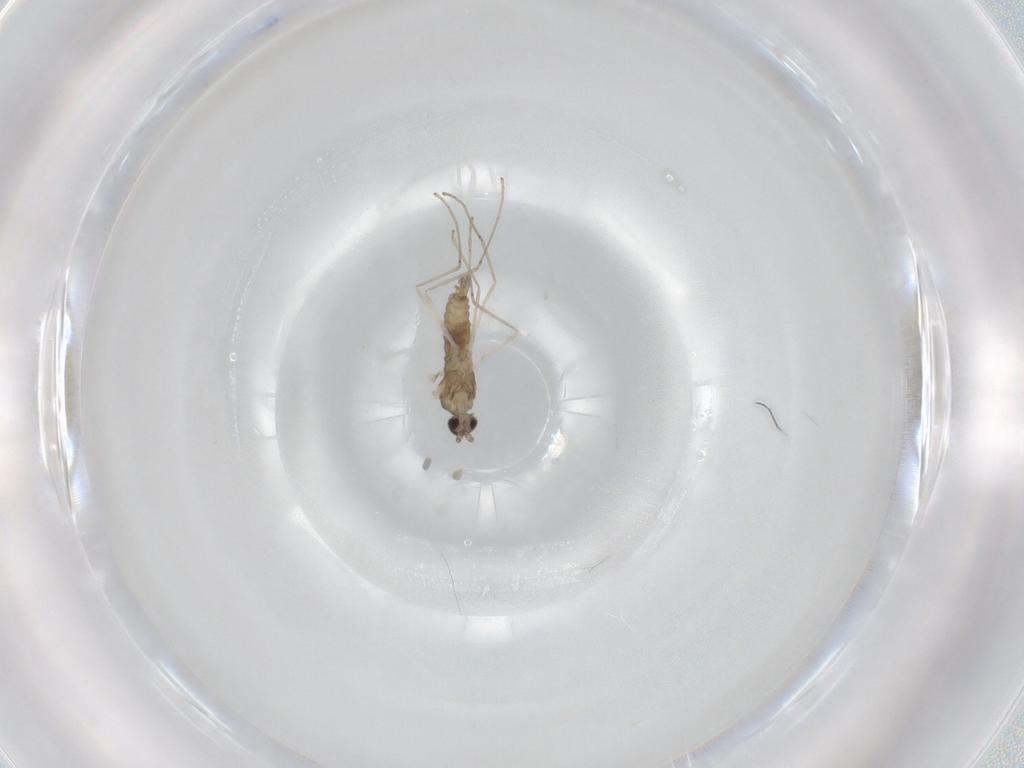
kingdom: Animalia
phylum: Arthropoda
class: Insecta
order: Diptera
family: Cecidomyiidae
